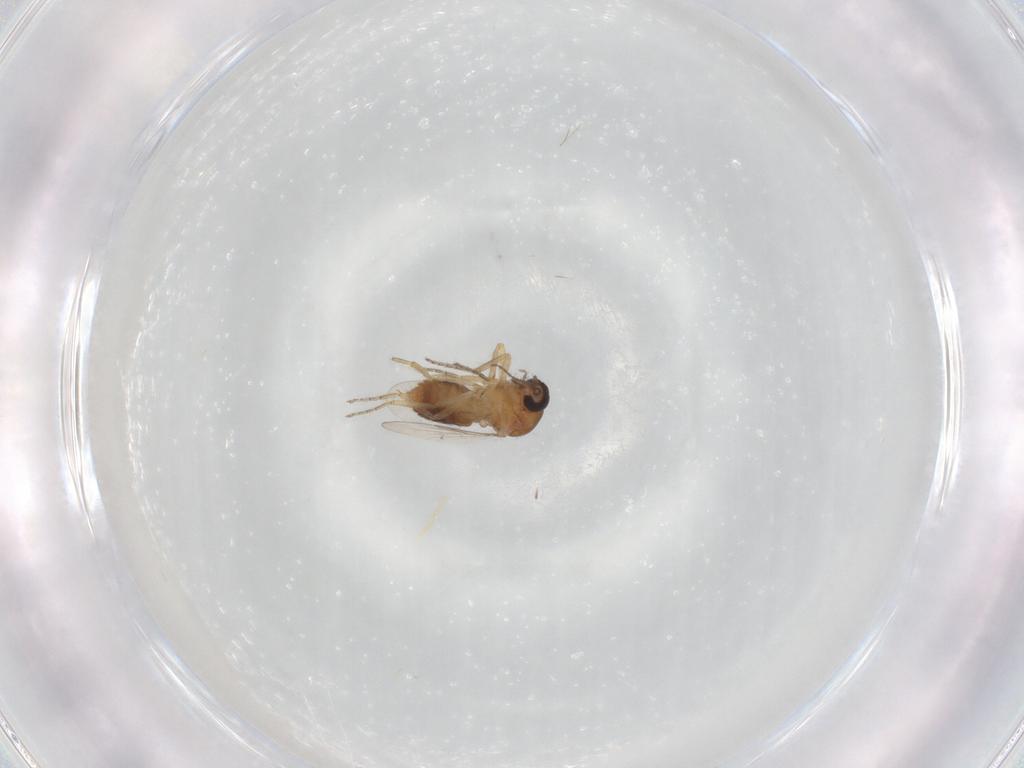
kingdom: Animalia
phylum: Arthropoda
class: Insecta
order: Diptera
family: Ceratopogonidae
